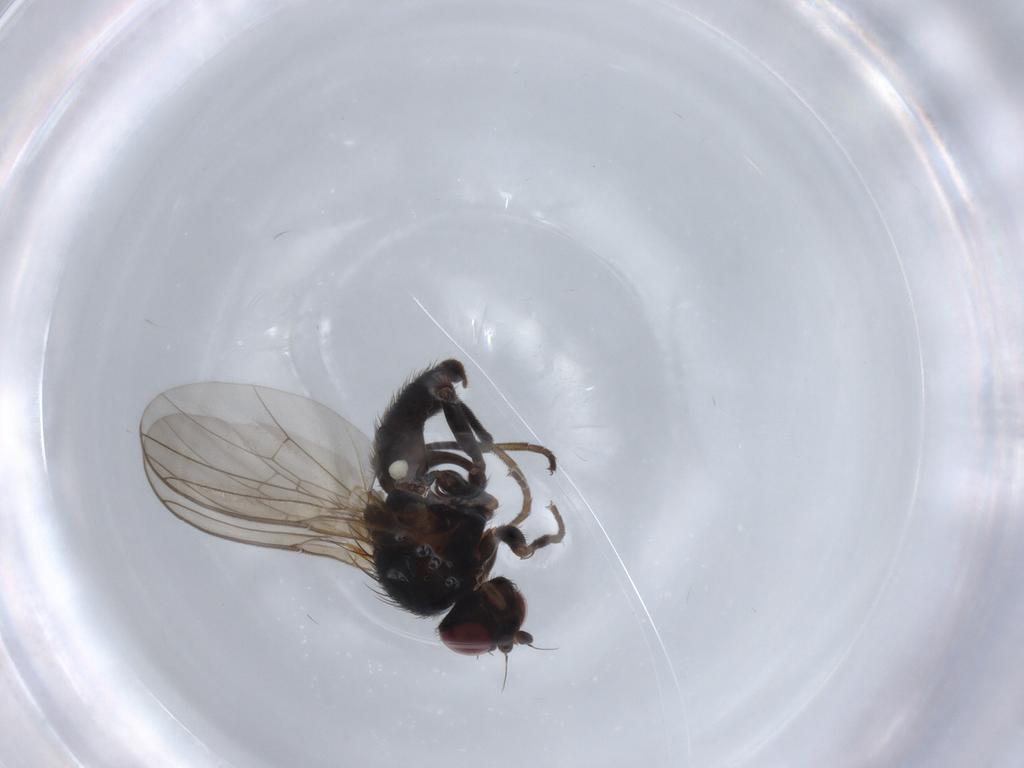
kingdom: Animalia
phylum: Arthropoda
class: Insecta
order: Diptera
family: Agromyzidae
